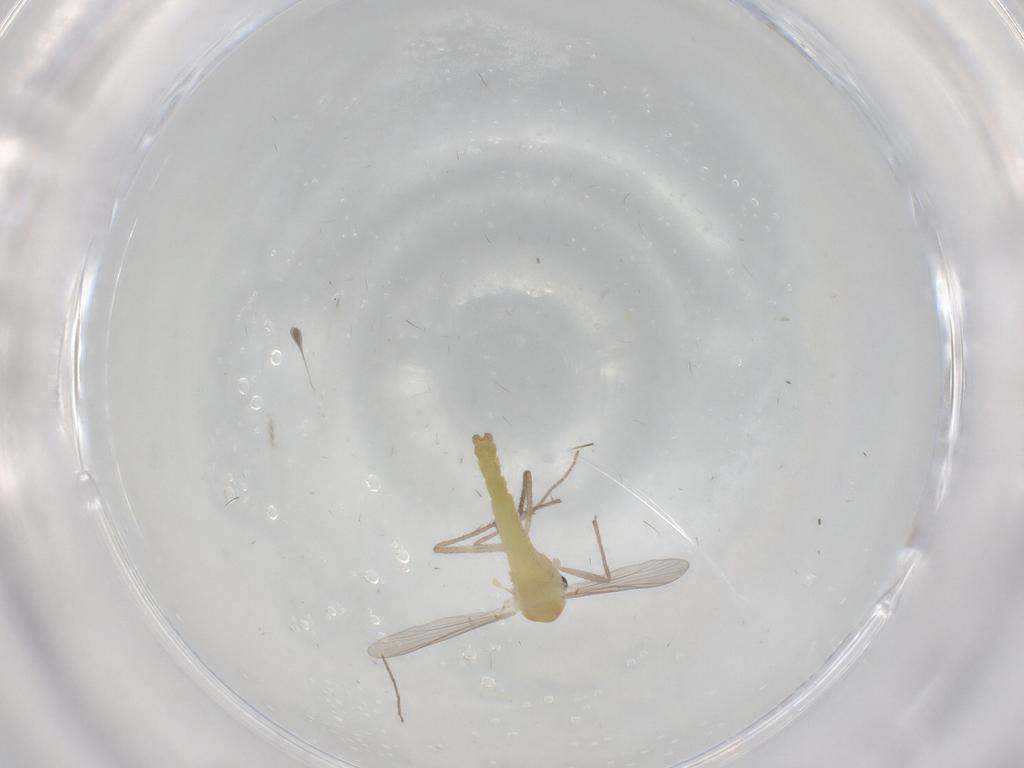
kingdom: Animalia
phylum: Arthropoda
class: Insecta
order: Diptera
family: Chironomidae
